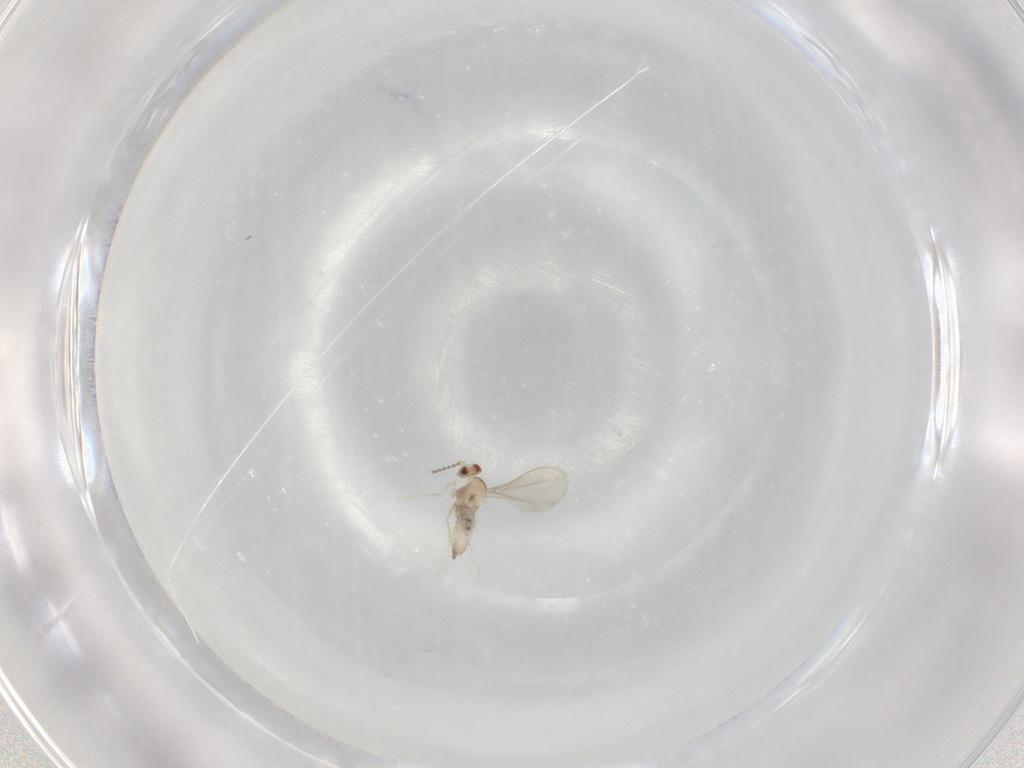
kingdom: Animalia
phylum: Arthropoda
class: Insecta
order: Diptera
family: Cecidomyiidae
